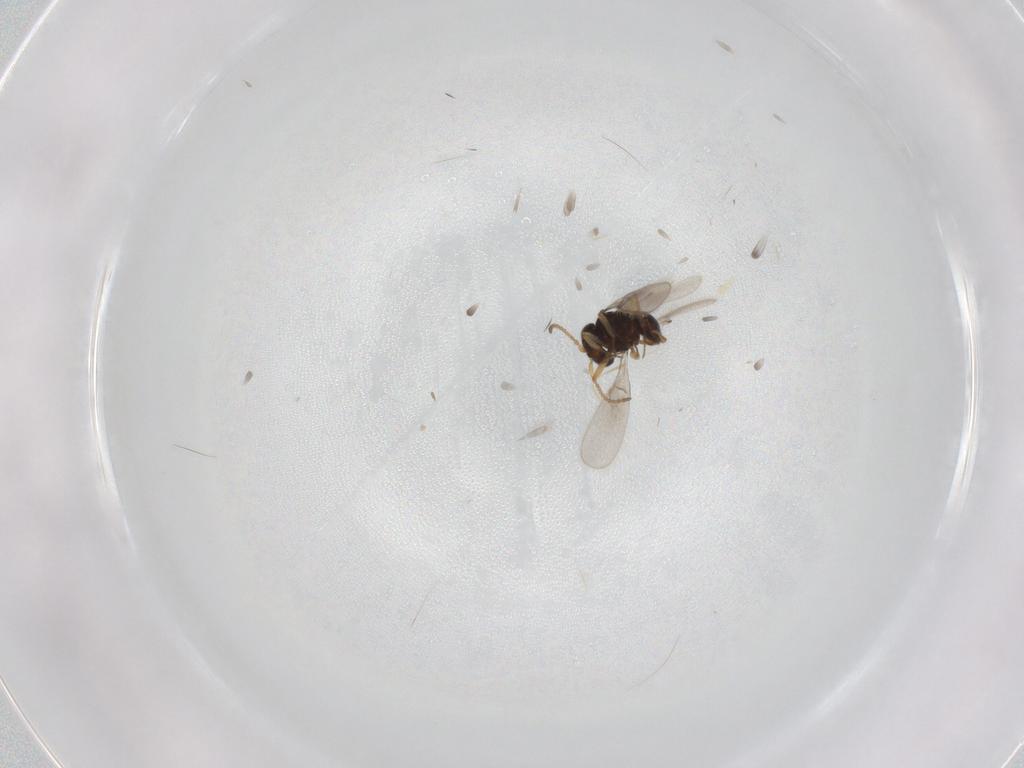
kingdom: Animalia
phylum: Arthropoda
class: Insecta
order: Hymenoptera
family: Scelionidae
